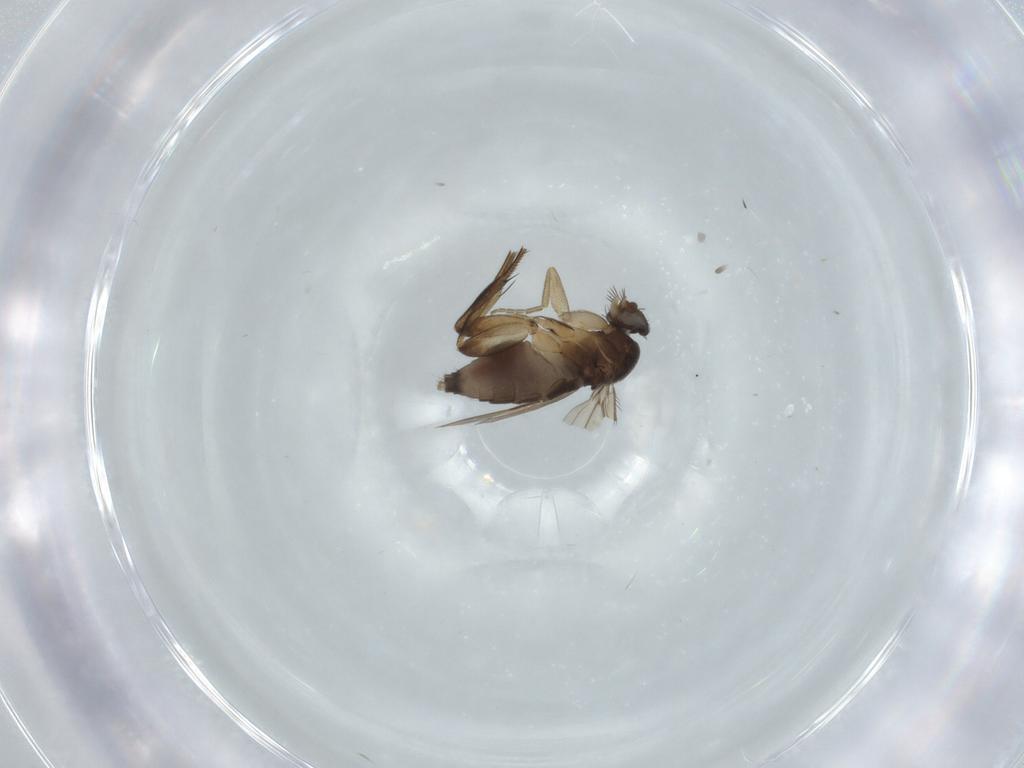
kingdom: Animalia
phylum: Arthropoda
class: Insecta
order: Diptera
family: Phoridae
